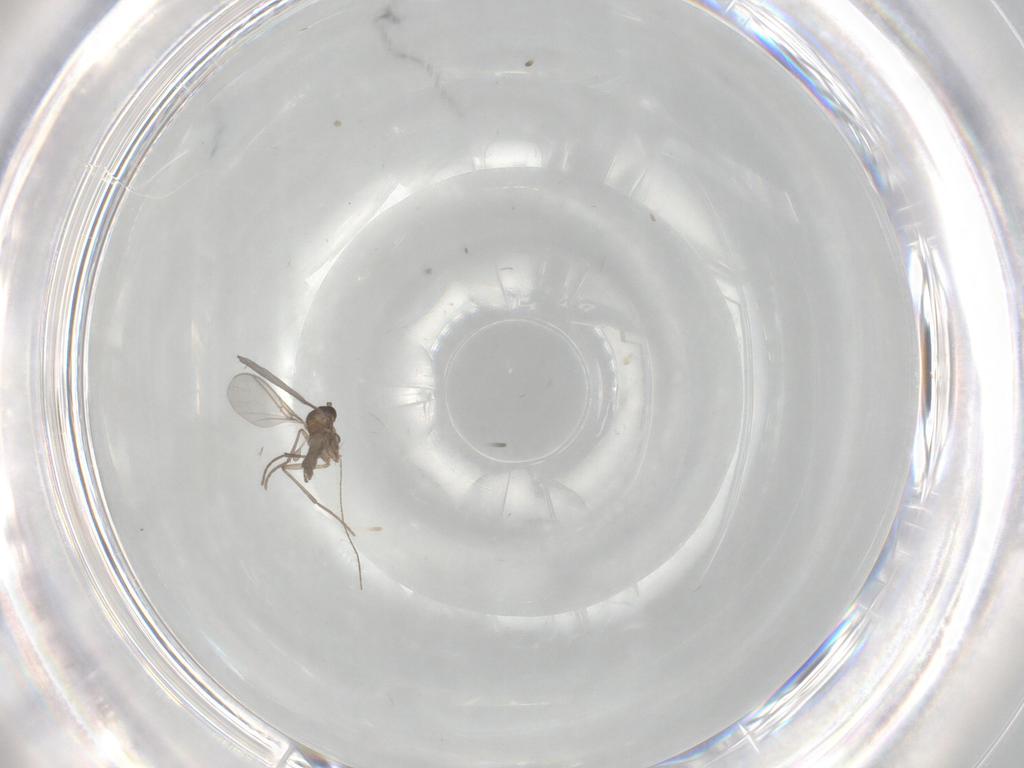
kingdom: Animalia
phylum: Arthropoda
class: Insecta
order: Diptera
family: Sciaridae
